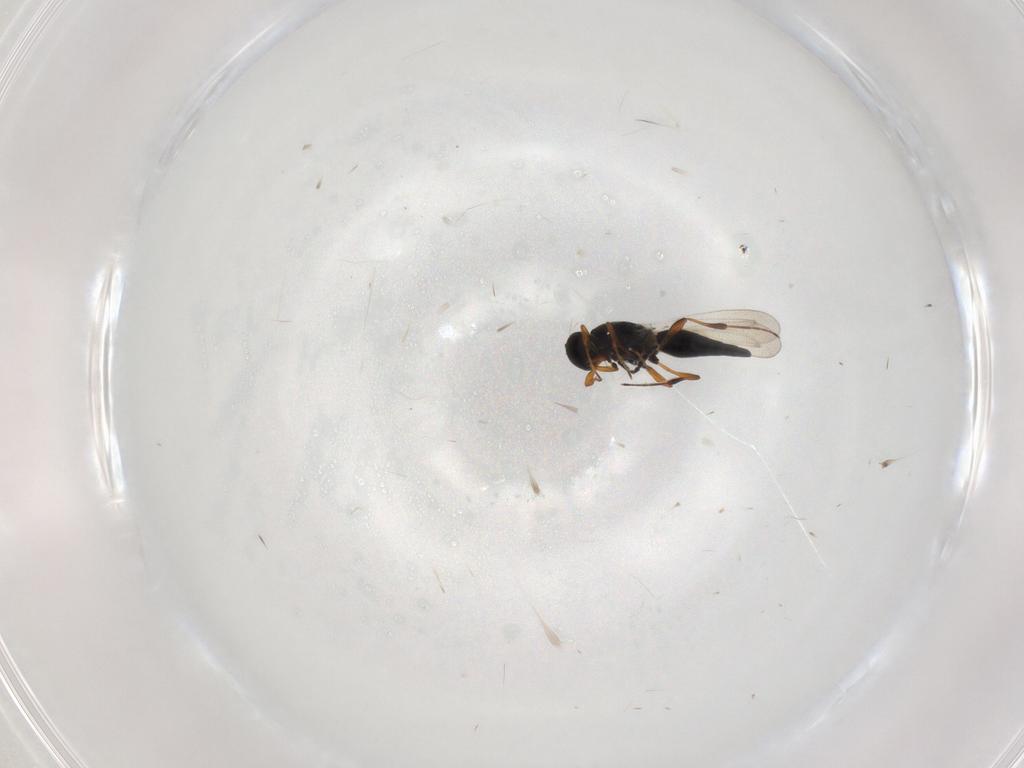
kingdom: Animalia
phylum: Arthropoda
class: Insecta
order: Hymenoptera
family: Platygastridae
